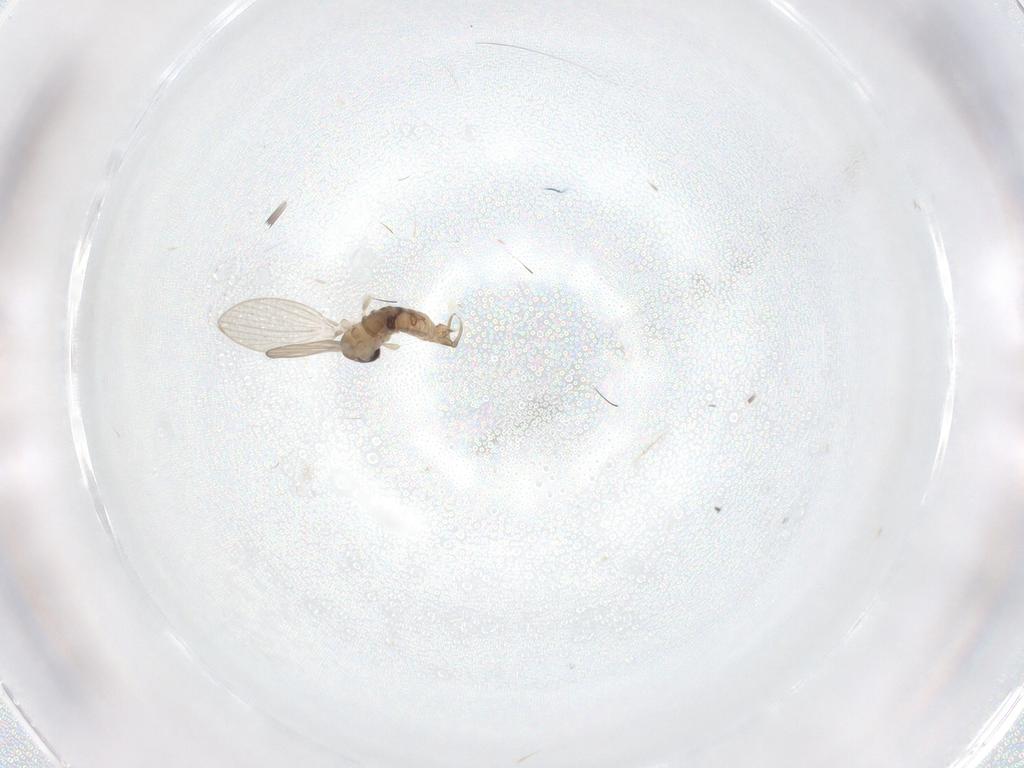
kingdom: Animalia
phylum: Arthropoda
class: Insecta
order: Diptera
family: Psychodidae
